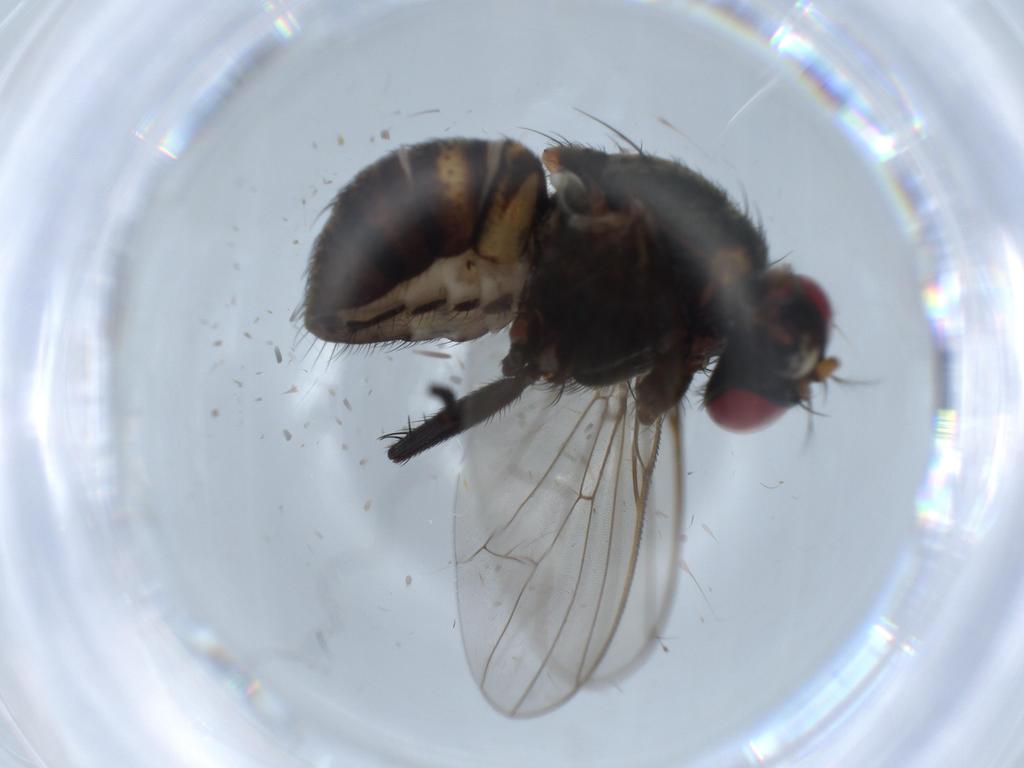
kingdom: Animalia
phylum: Arthropoda
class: Insecta
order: Diptera
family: Cecidomyiidae
